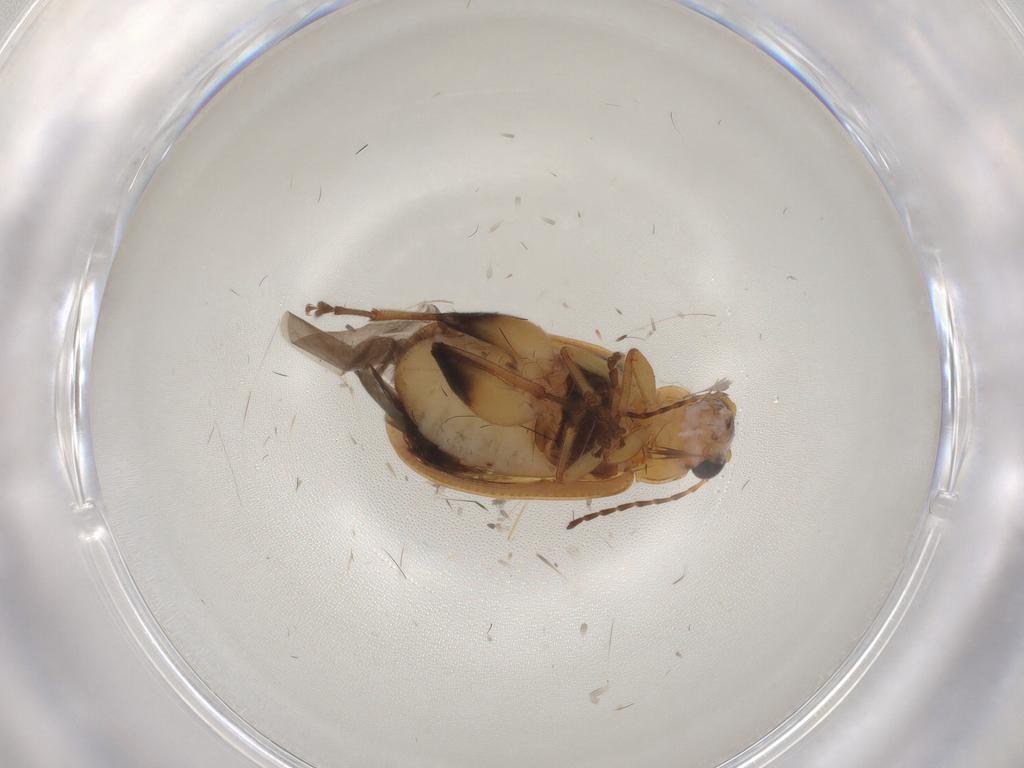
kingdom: Animalia
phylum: Arthropoda
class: Insecta
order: Coleoptera
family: Chrysomelidae
